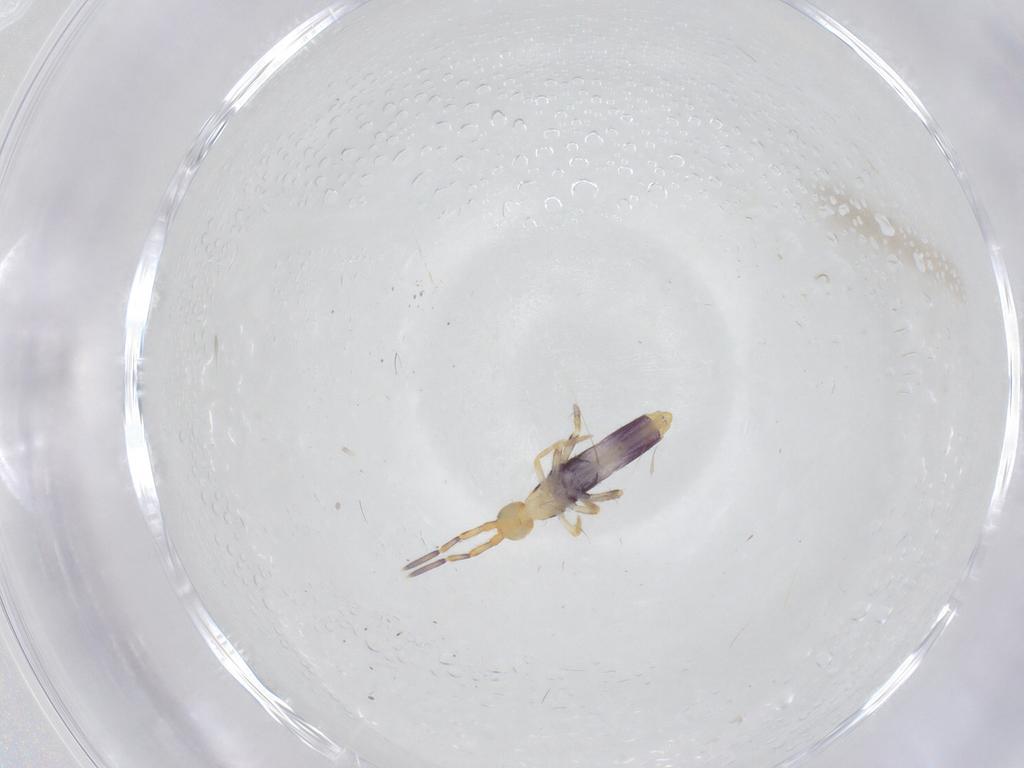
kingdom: Animalia
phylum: Arthropoda
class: Collembola
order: Entomobryomorpha
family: Entomobryidae
